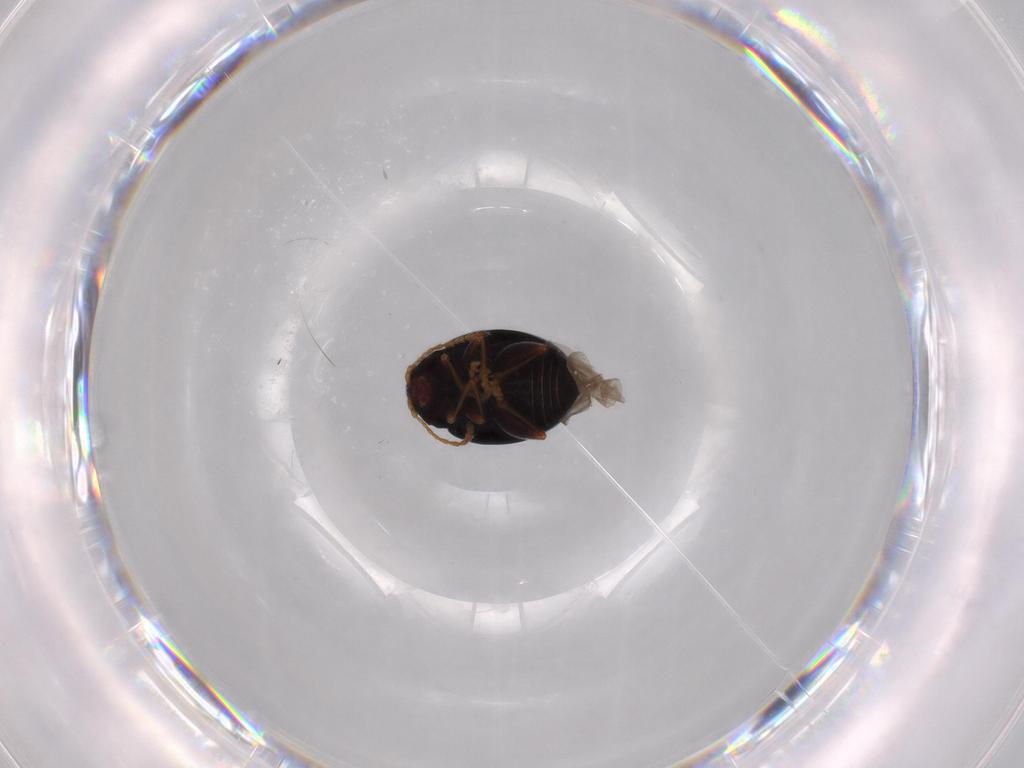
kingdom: Animalia
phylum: Arthropoda
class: Insecta
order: Coleoptera
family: Chrysomelidae
